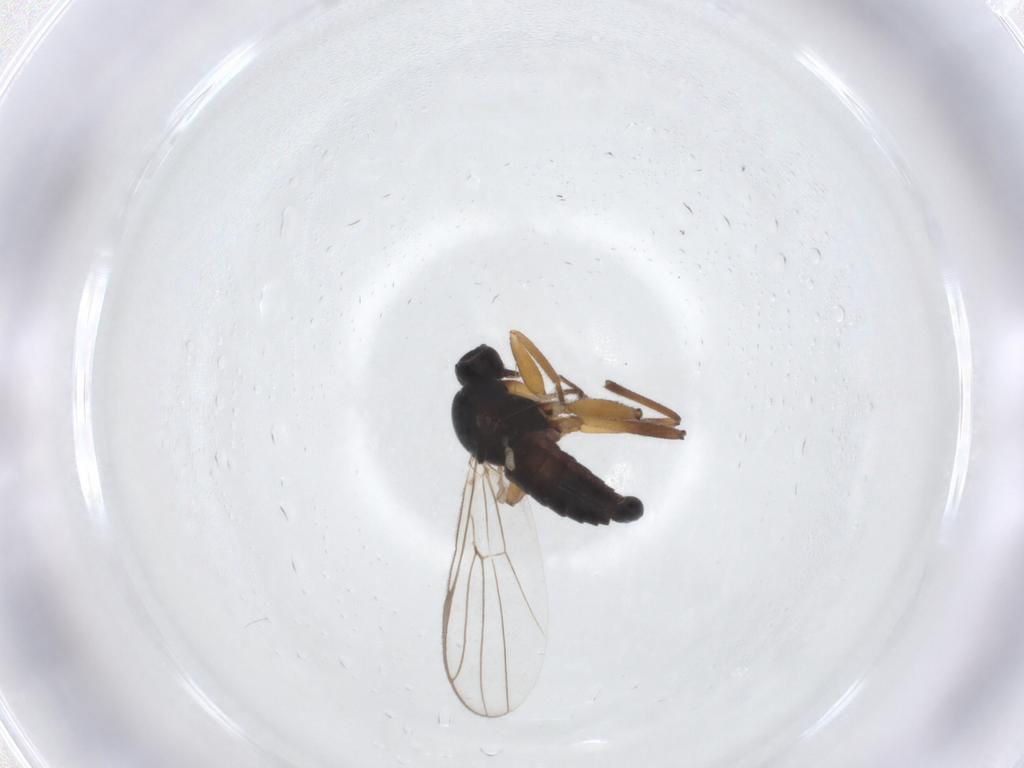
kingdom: Animalia
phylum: Arthropoda
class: Insecta
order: Diptera
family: Hybotidae
